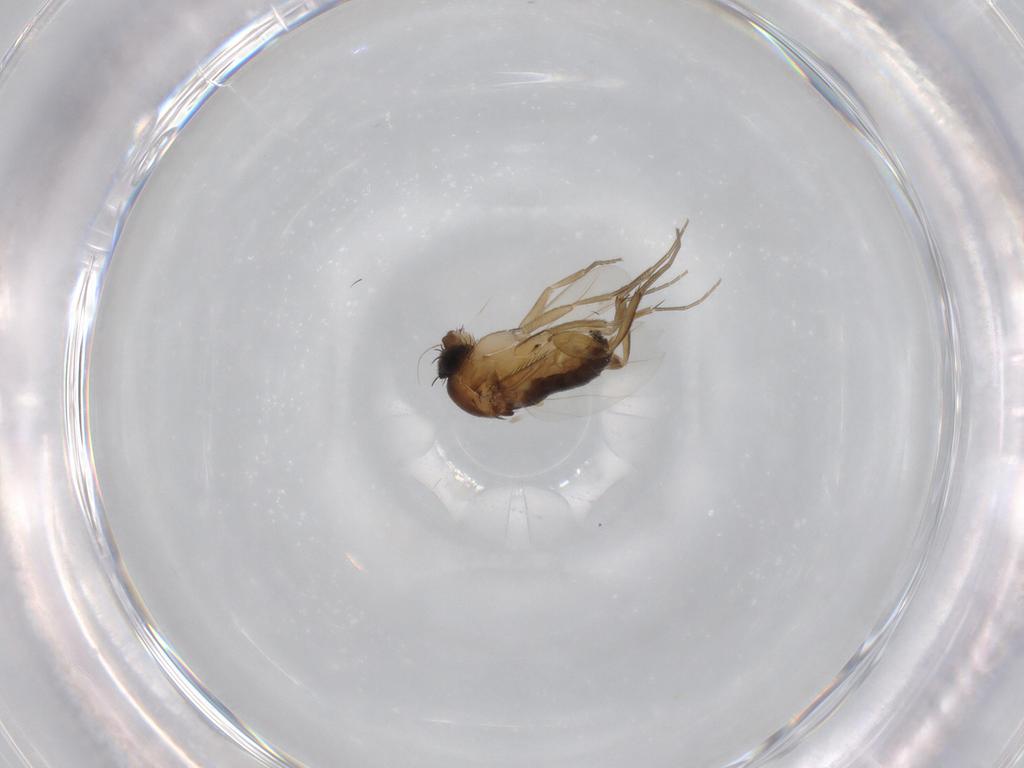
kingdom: Animalia
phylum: Arthropoda
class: Insecta
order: Diptera
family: Phoridae
